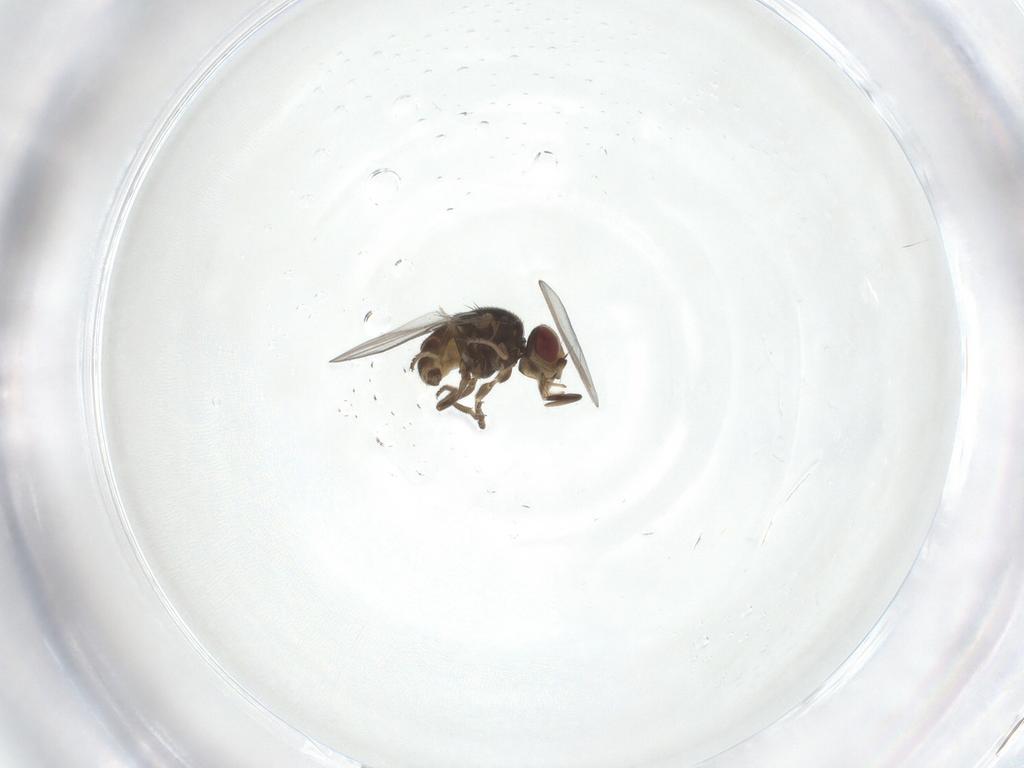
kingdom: Animalia
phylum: Arthropoda
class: Insecta
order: Diptera
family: Chloropidae
